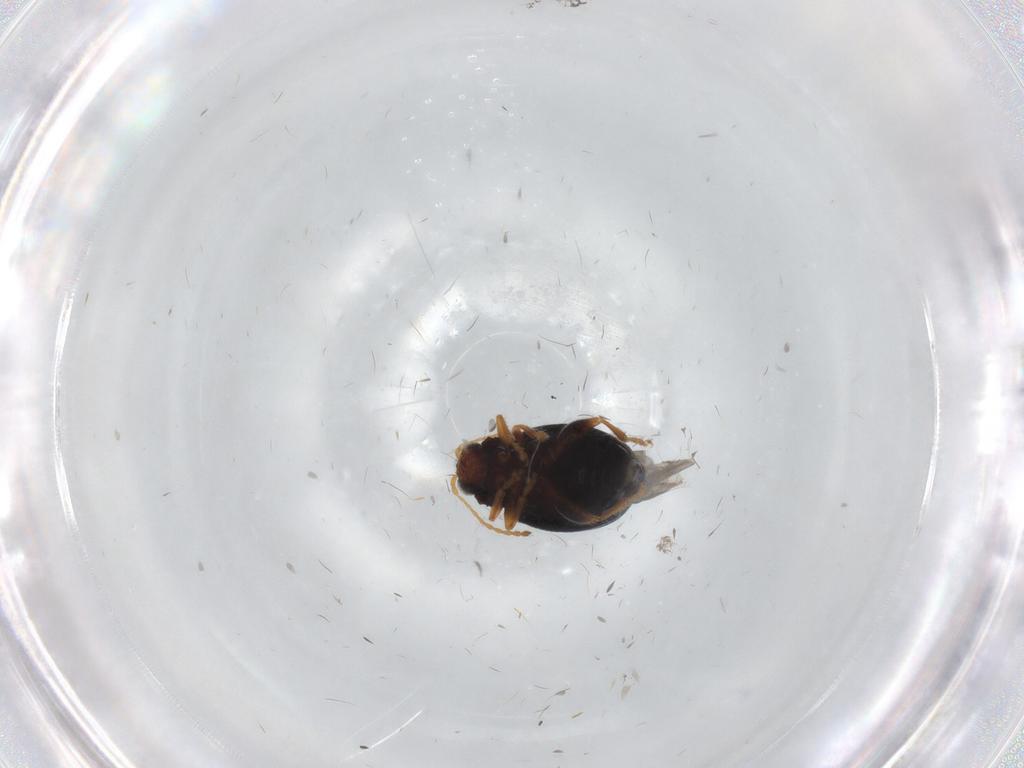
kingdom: Animalia
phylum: Arthropoda
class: Insecta
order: Coleoptera
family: Chrysomelidae
